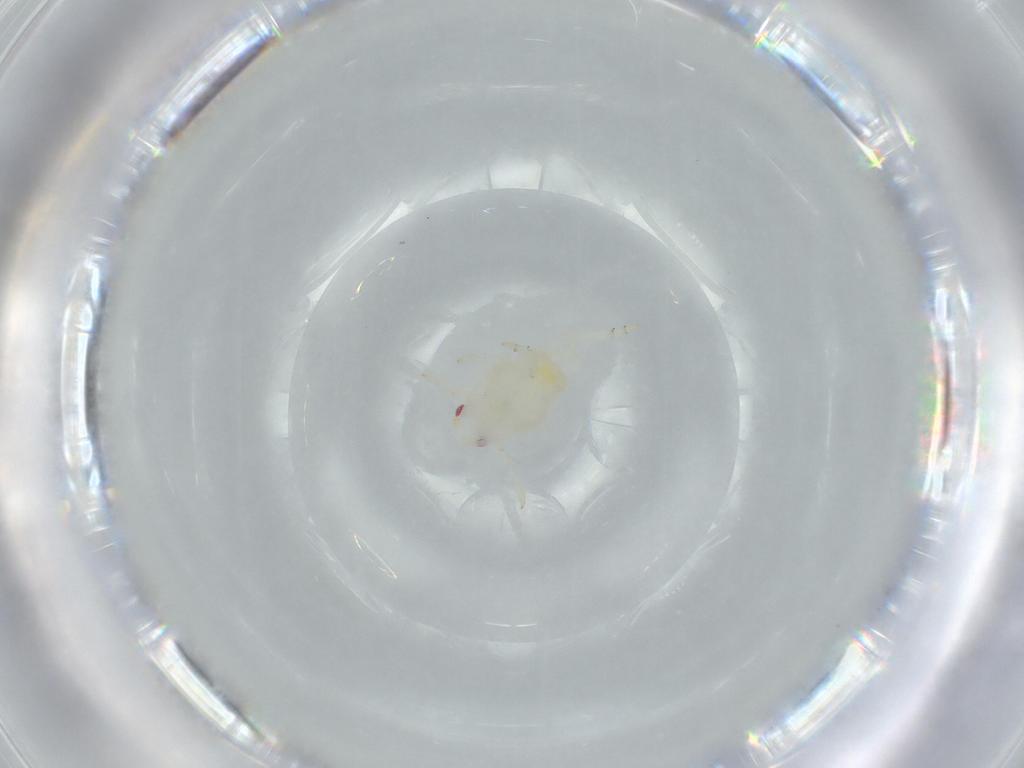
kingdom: Animalia
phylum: Arthropoda
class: Insecta
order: Hemiptera
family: Flatidae
